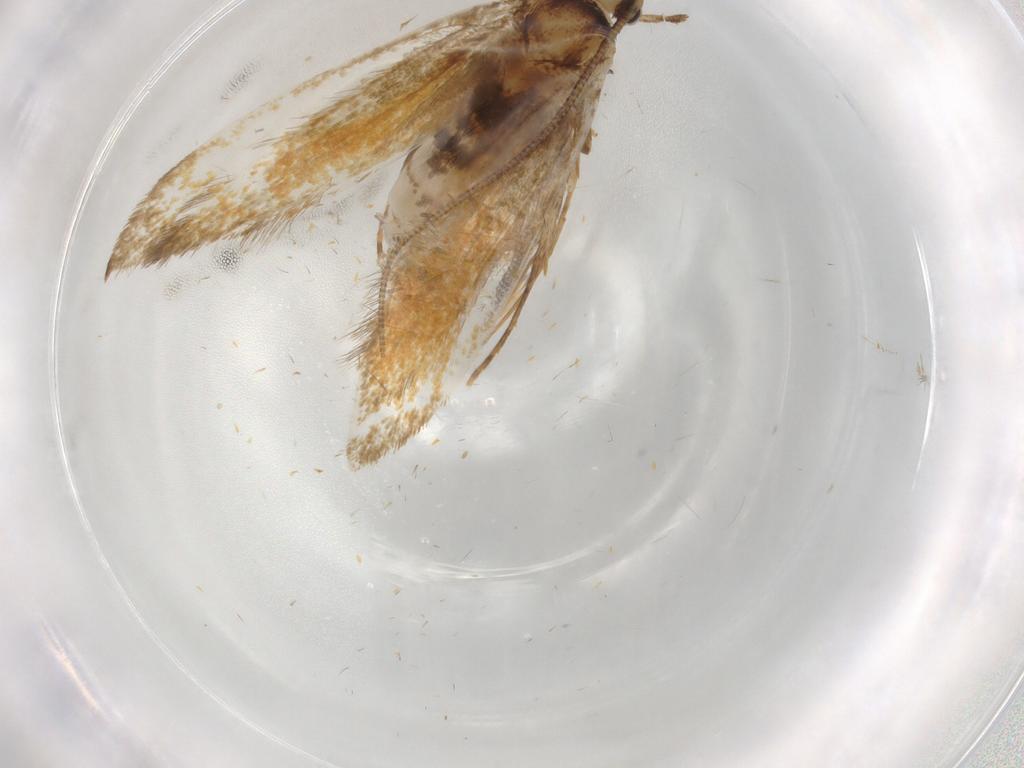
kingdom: Animalia
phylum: Arthropoda
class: Insecta
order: Lepidoptera
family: Tineidae
